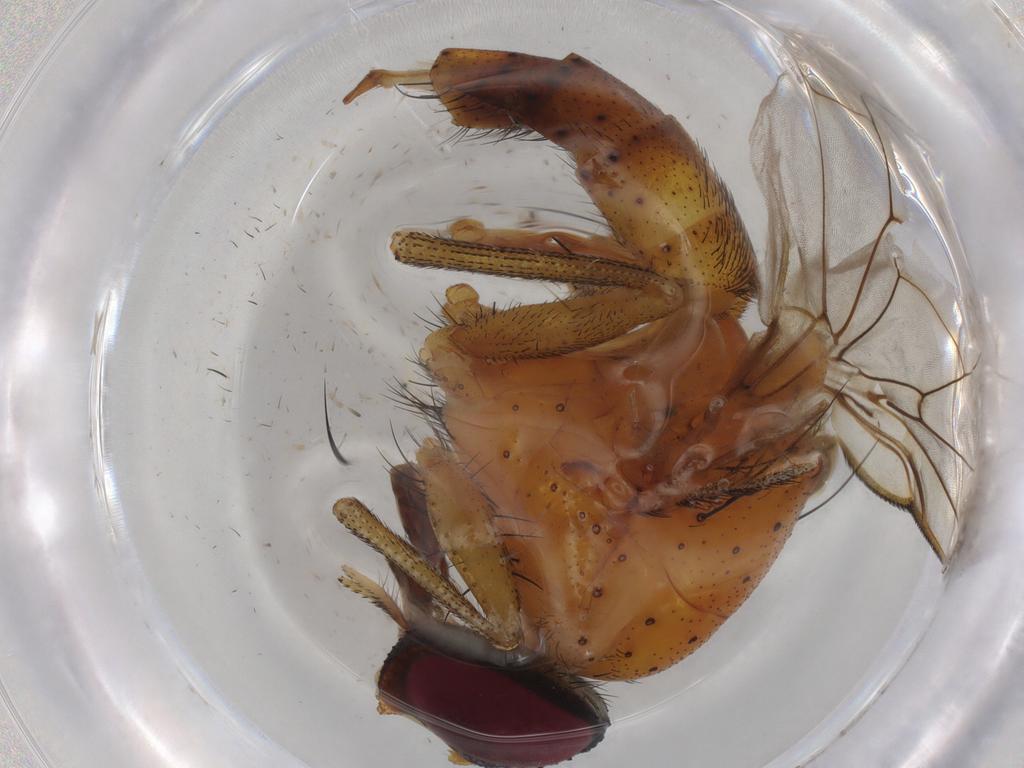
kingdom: Animalia
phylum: Arthropoda
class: Insecta
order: Diptera
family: Muscidae
